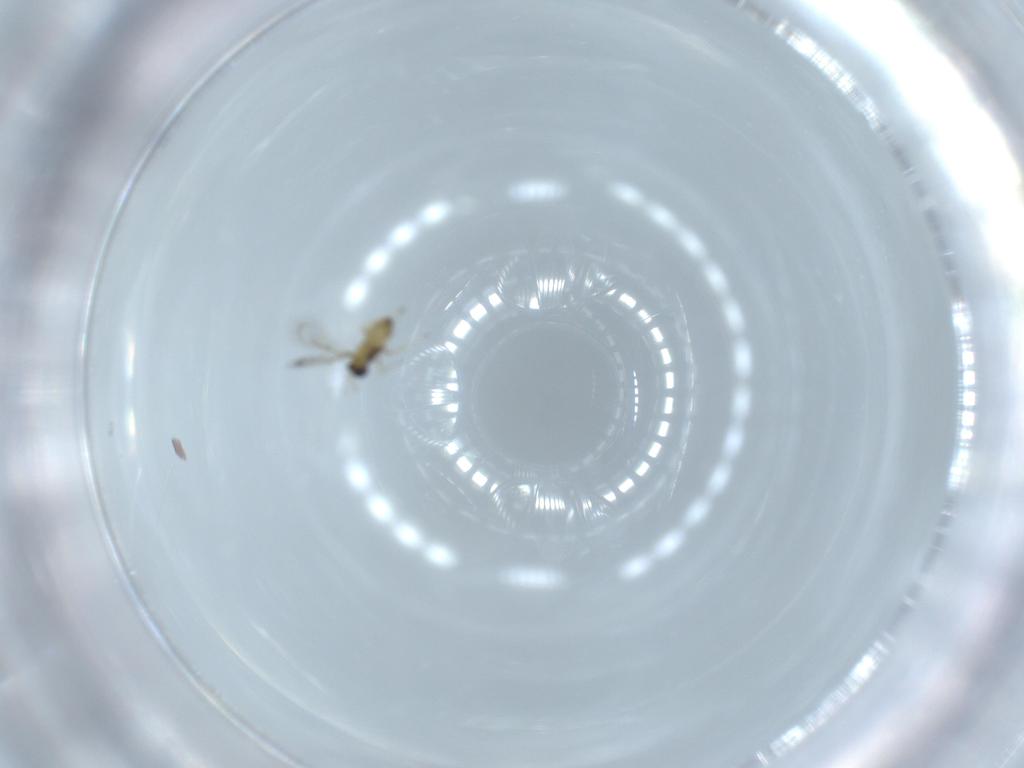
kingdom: Animalia
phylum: Arthropoda
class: Insecta
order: Hymenoptera
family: Trichogrammatidae
